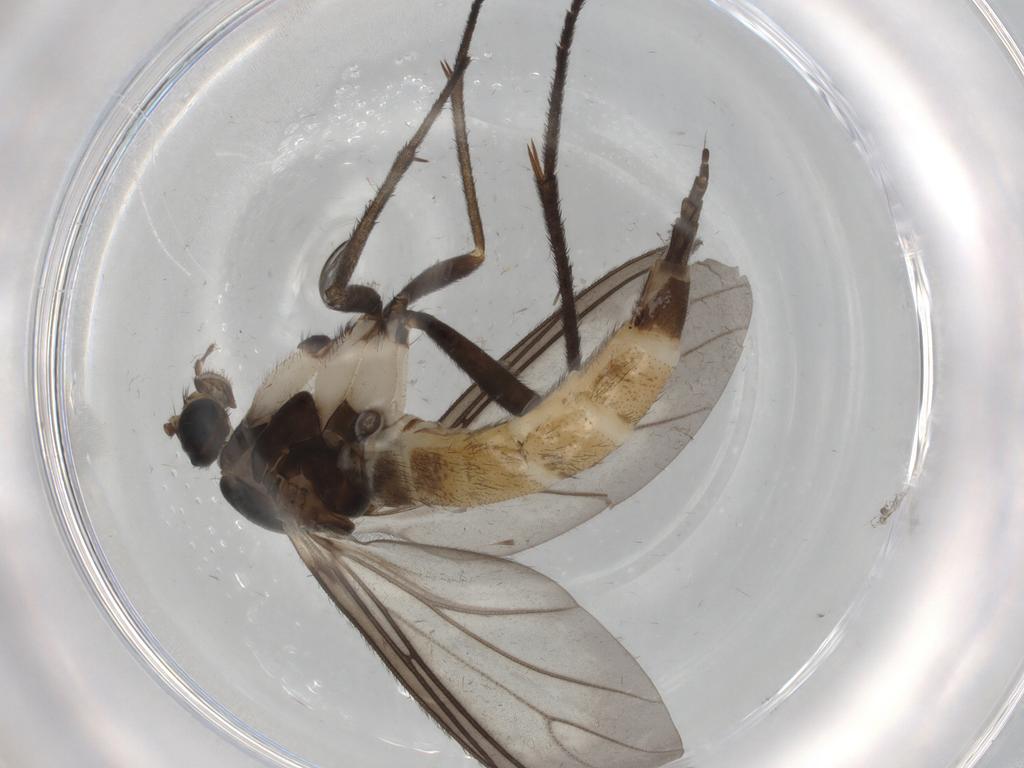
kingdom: Animalia
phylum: Arthropoda
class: Insecta
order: Diptera
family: Sciaridae
